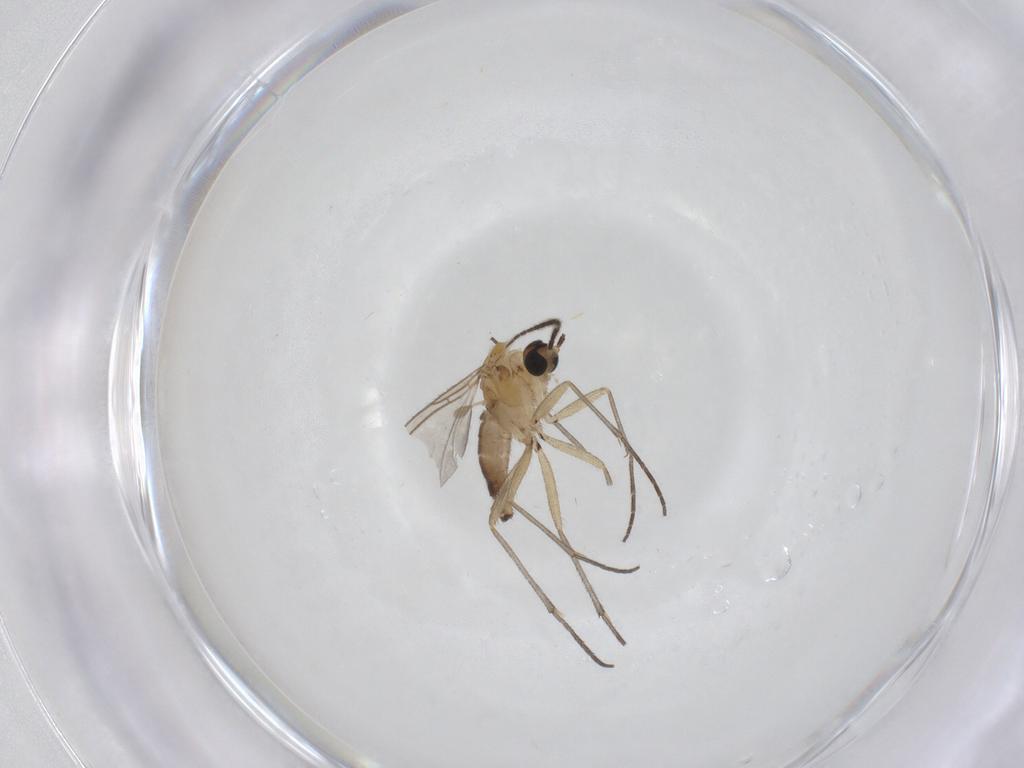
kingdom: Animalia
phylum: Arthropoda
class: Insecta
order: Diptera
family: Sciaridae
